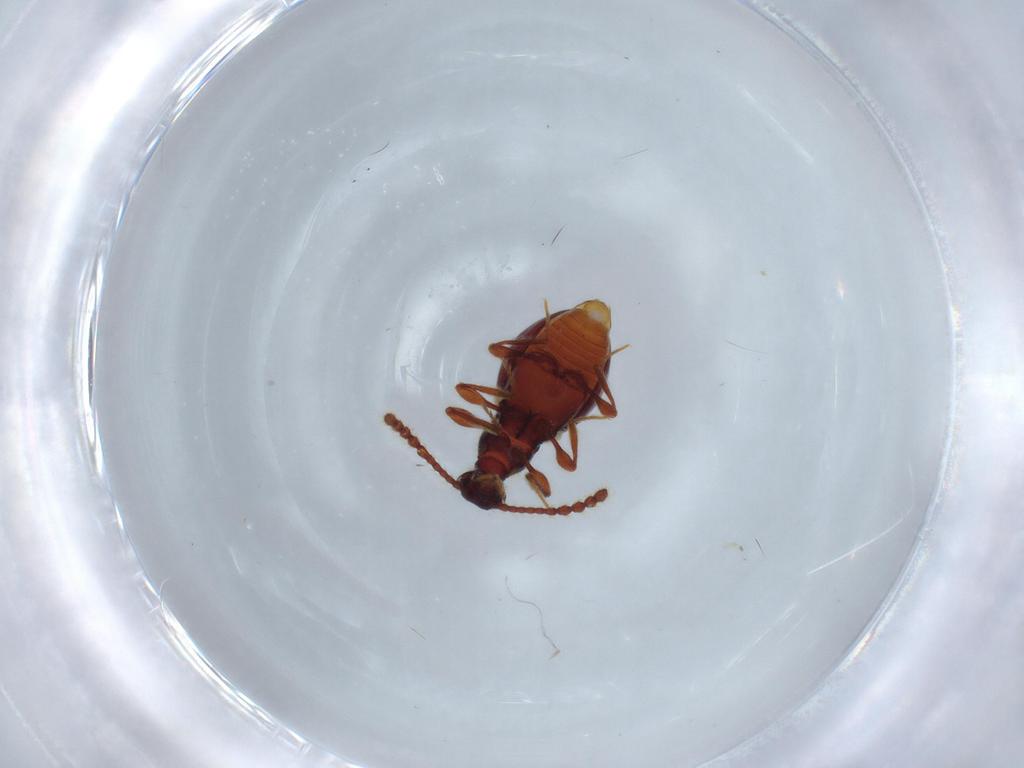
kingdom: Animalia
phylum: Arthropoda
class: Insecta
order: Coleoptera
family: Staphylinidae
